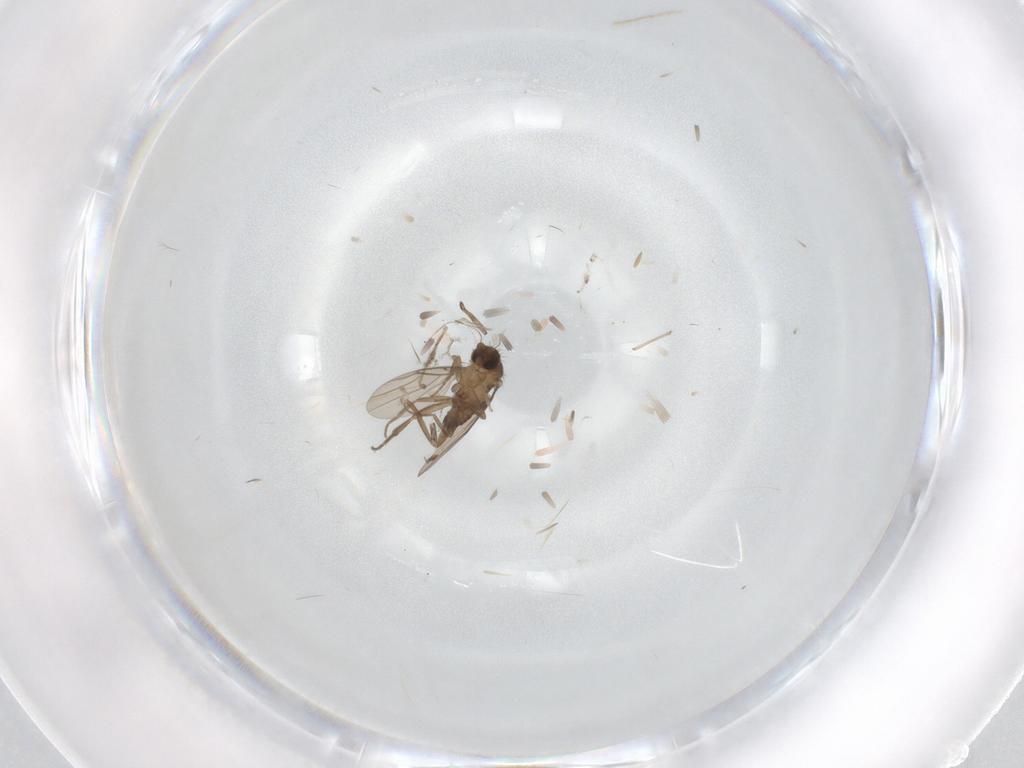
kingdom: Animalia
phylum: Arthropoda
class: Insecta
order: Diptera
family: Phoridae
